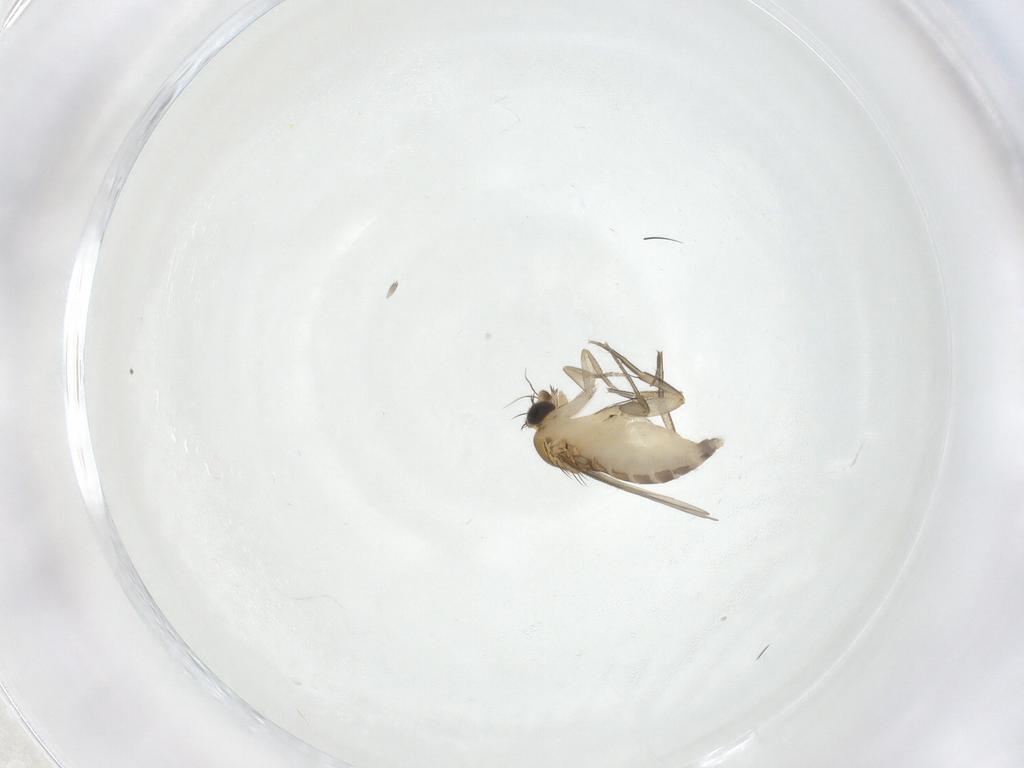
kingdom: Animalia
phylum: Arthropoda
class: Insecta
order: Diptera
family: Phoridae
